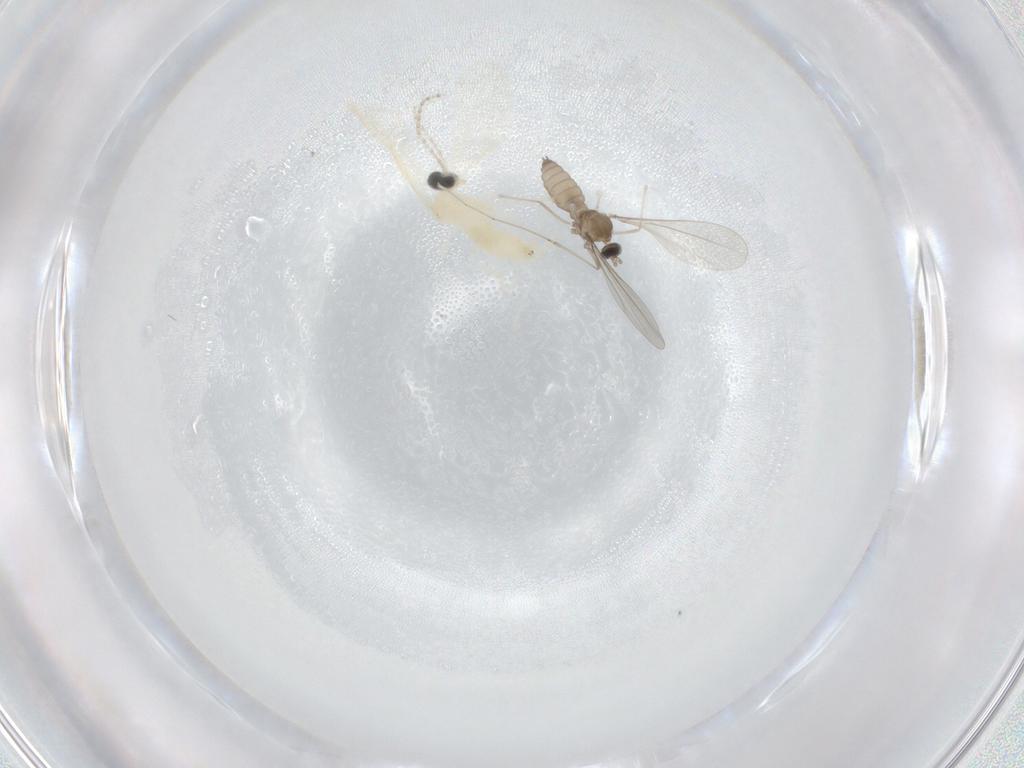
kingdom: Animalia
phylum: Arthropoda
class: Insecta
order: Diptera
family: Cecidomyiidae
